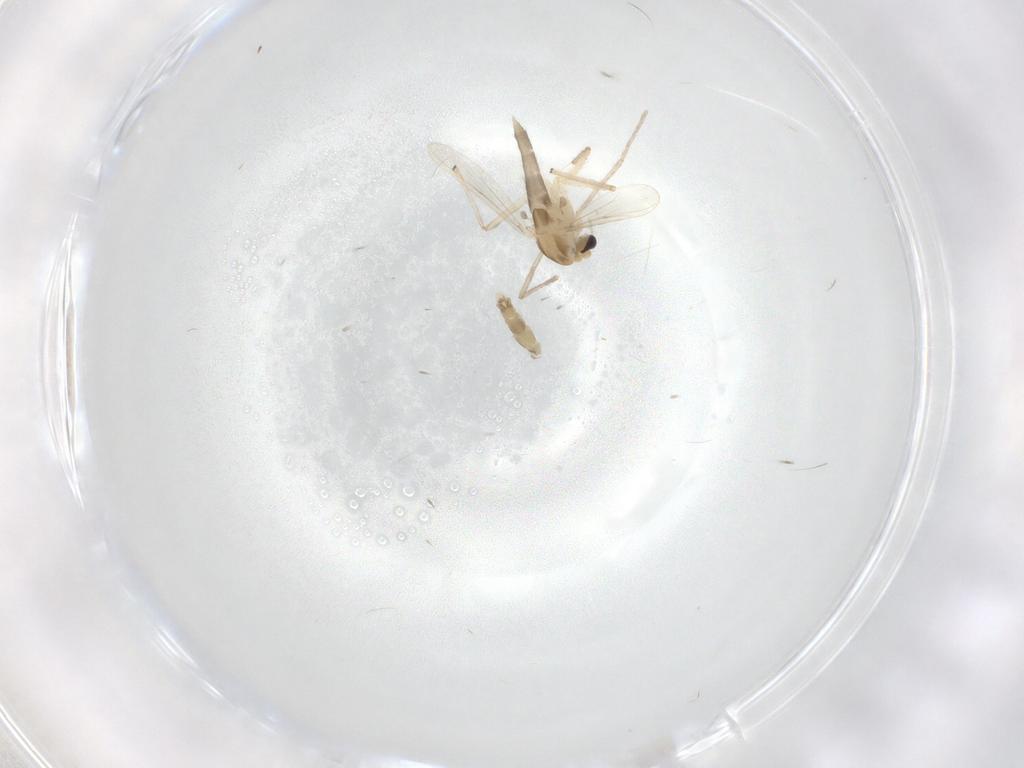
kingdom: Animalia
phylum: Arthropoda
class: Insecta
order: Diptera
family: Chironomidae
